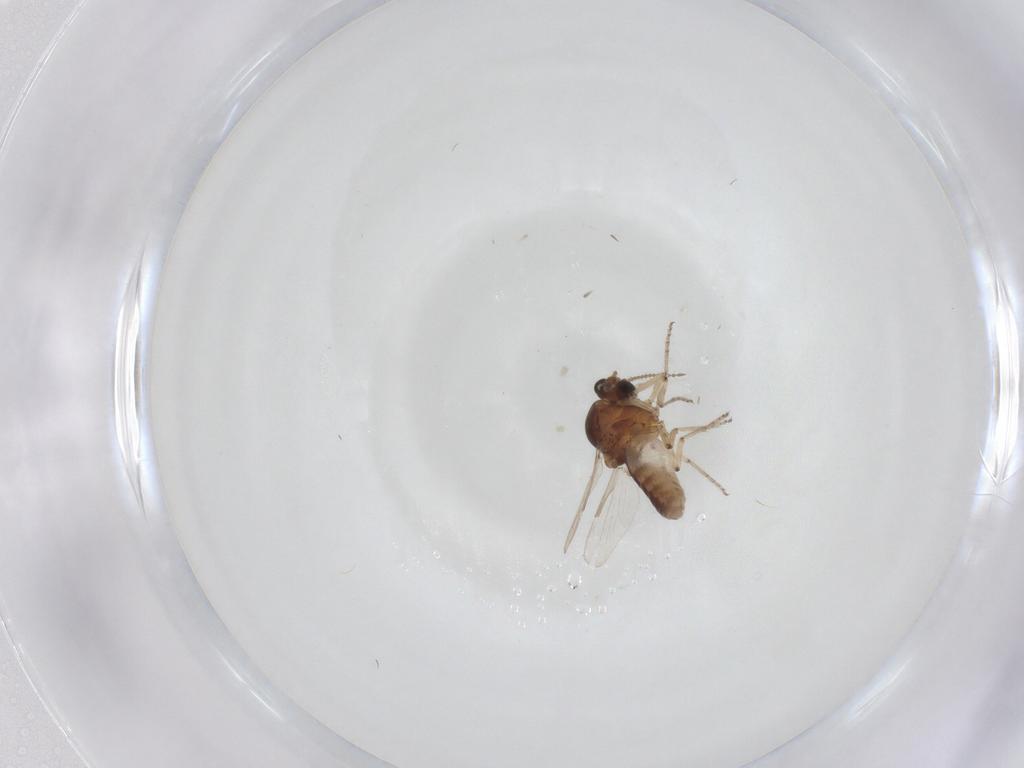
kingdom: Animalia
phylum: Arthropoda
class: Insecta
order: Diptera
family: Ceratopogonidae
